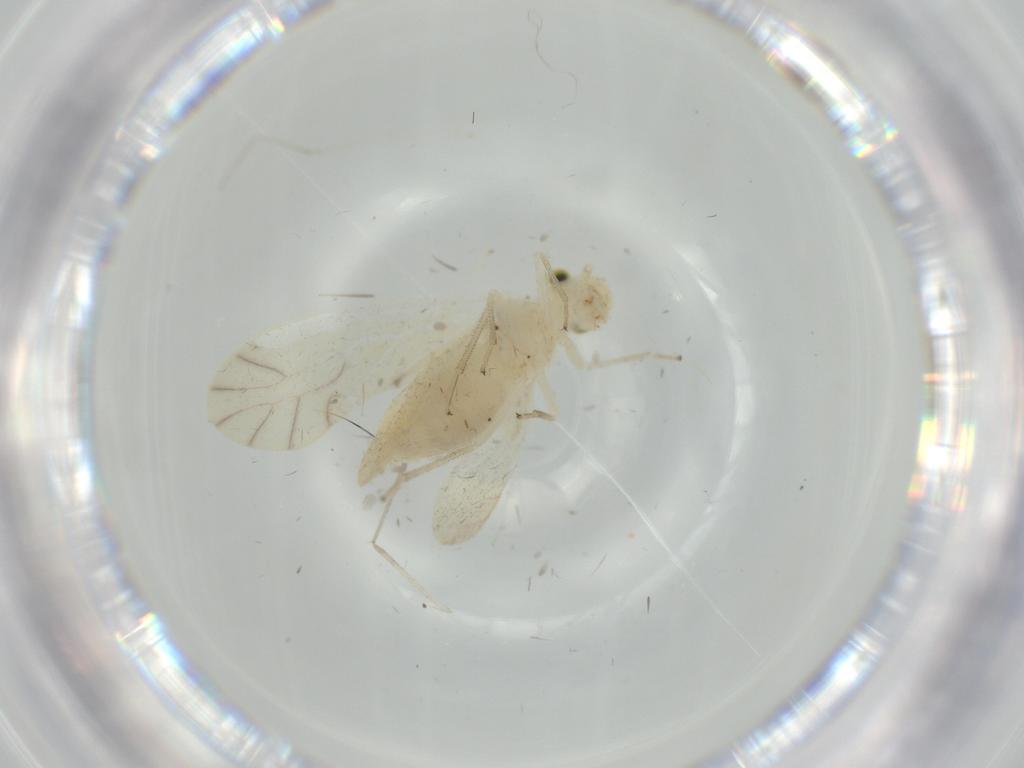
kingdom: Animalia
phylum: Arthropoda
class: Insecta
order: Psocodea
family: Caeciliusidae
